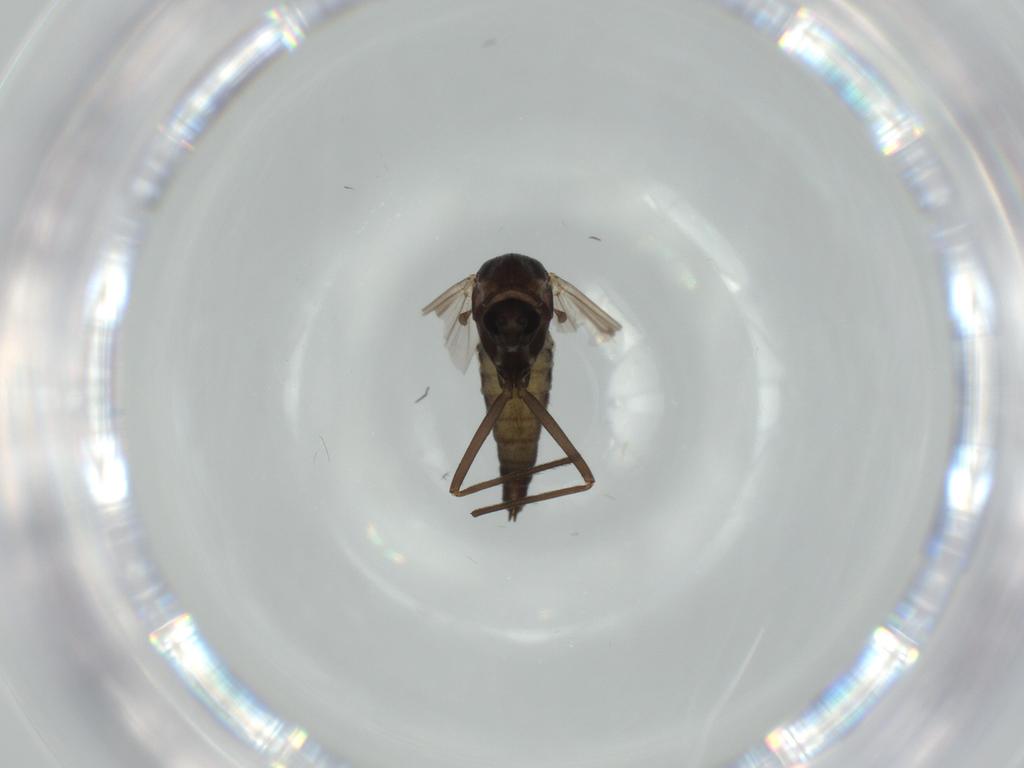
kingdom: Animalia
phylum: Arthropoda
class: Insecta
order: Diptera
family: Chironomidae
